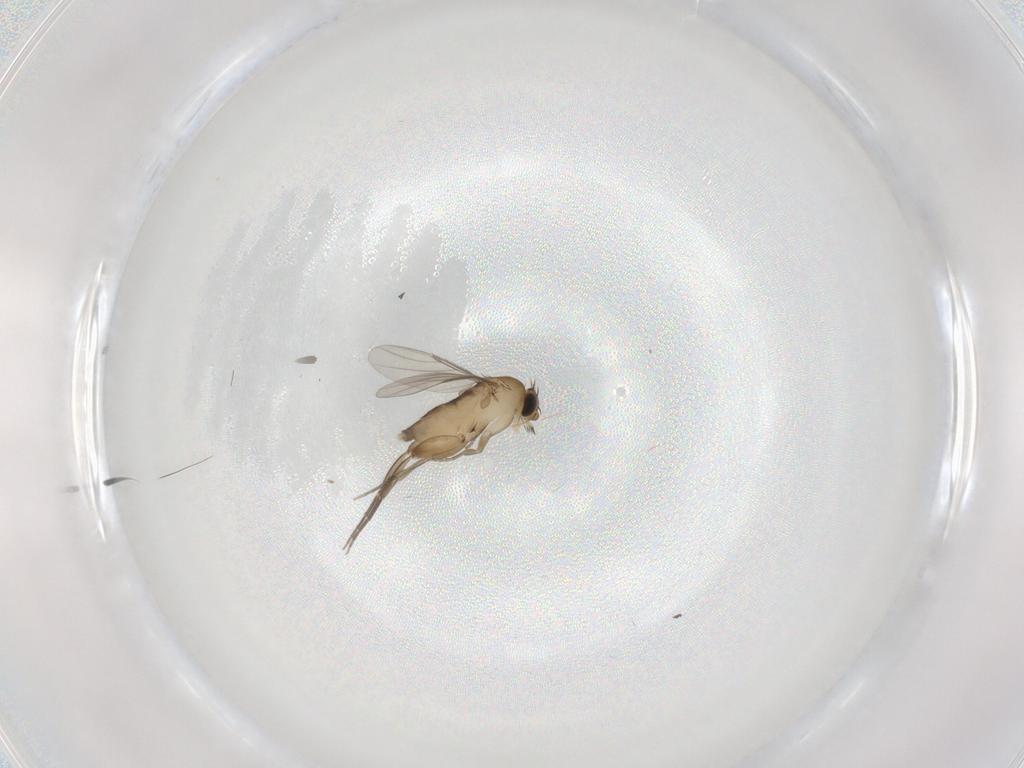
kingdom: Animalia
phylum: Arthropoda
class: Insecta
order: Diptera
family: Phoridae
